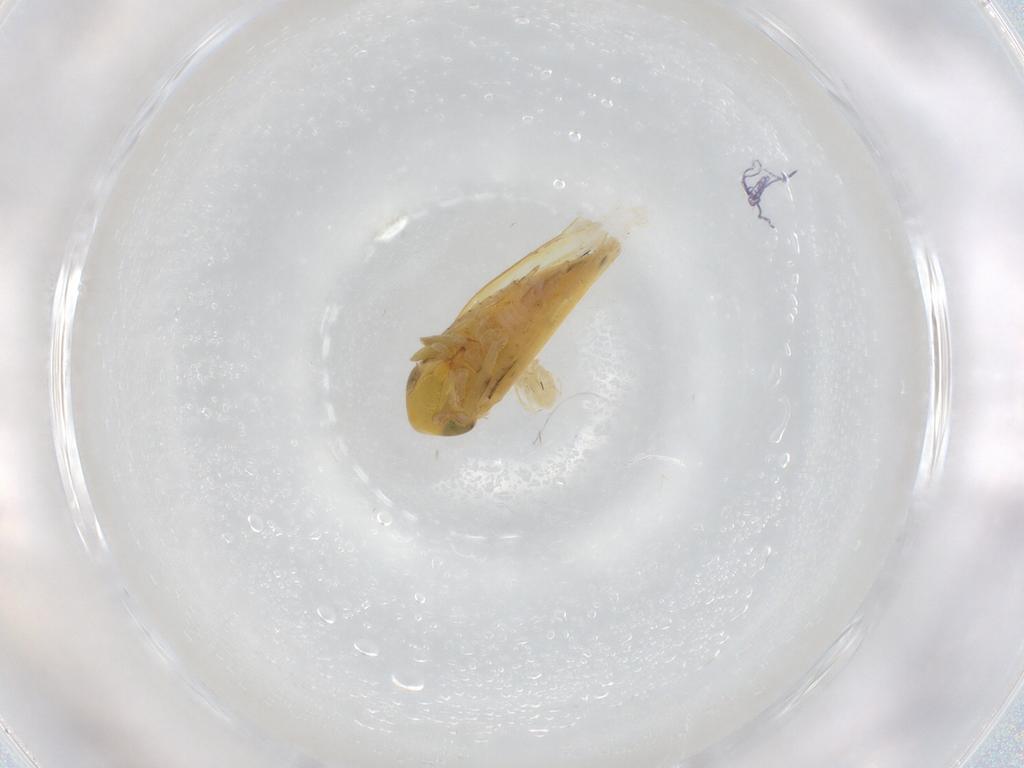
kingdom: Animalia
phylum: Arthropoda
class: Insecta
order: Hemiptera
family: Cicadellidae
